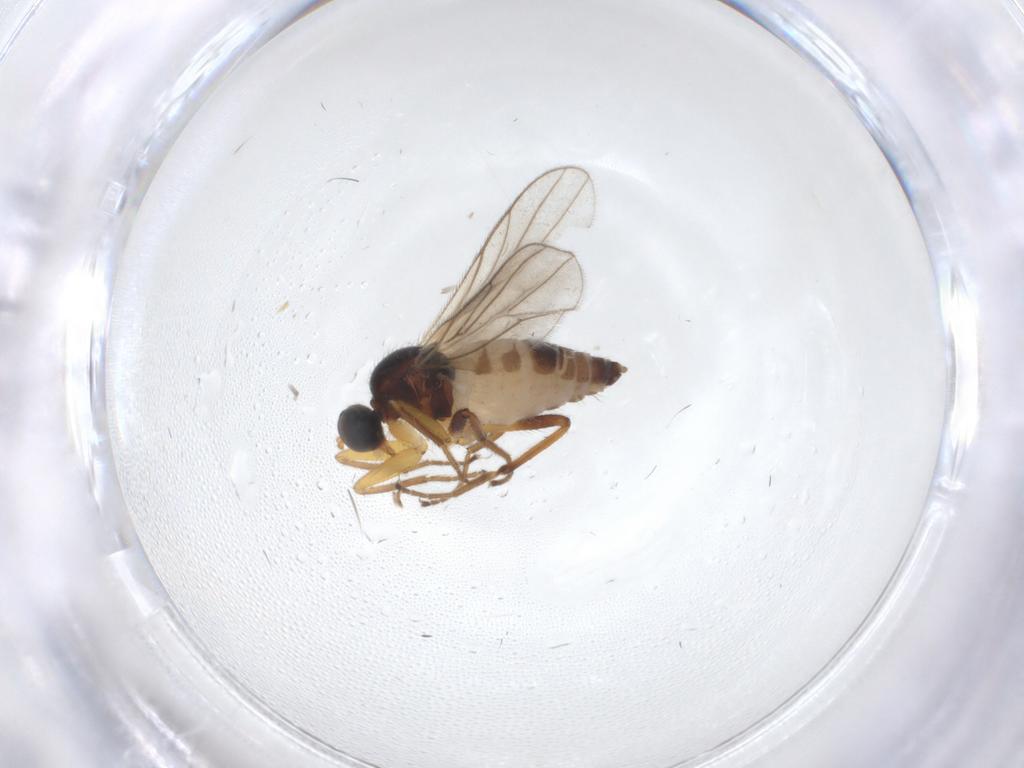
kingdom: Animalia
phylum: Arthropoda
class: Insecta
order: Diptera
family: Hybotidae
